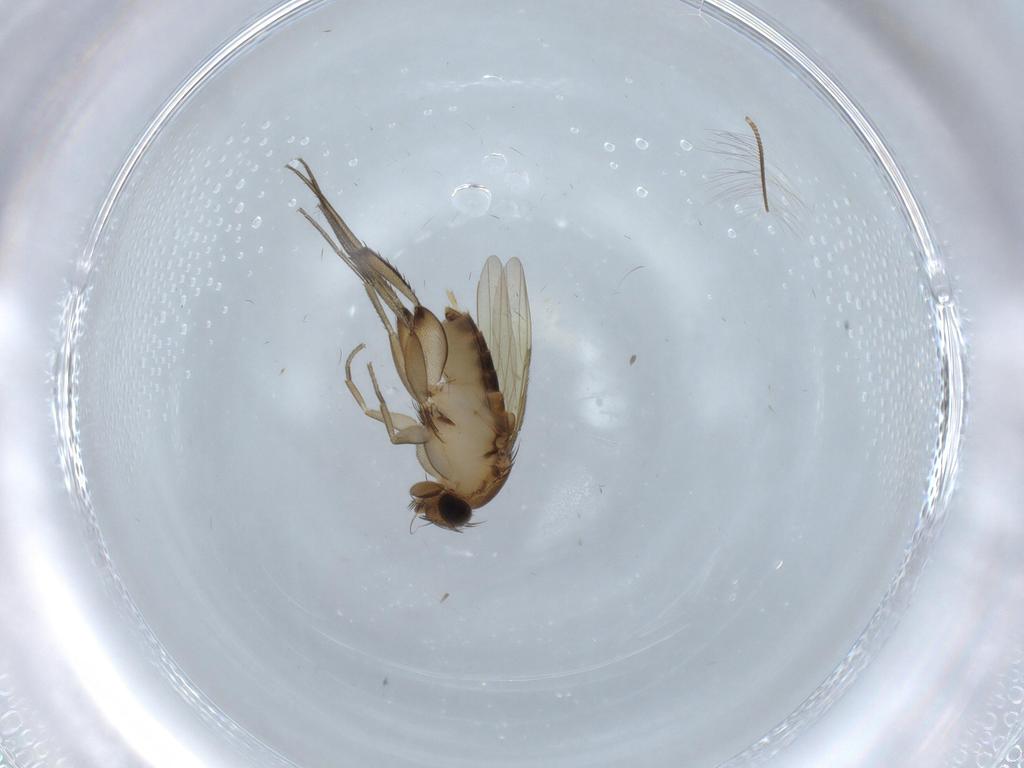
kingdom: Animalia
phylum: Arthropoda
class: Insecta
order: Diptera
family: Phoridae
